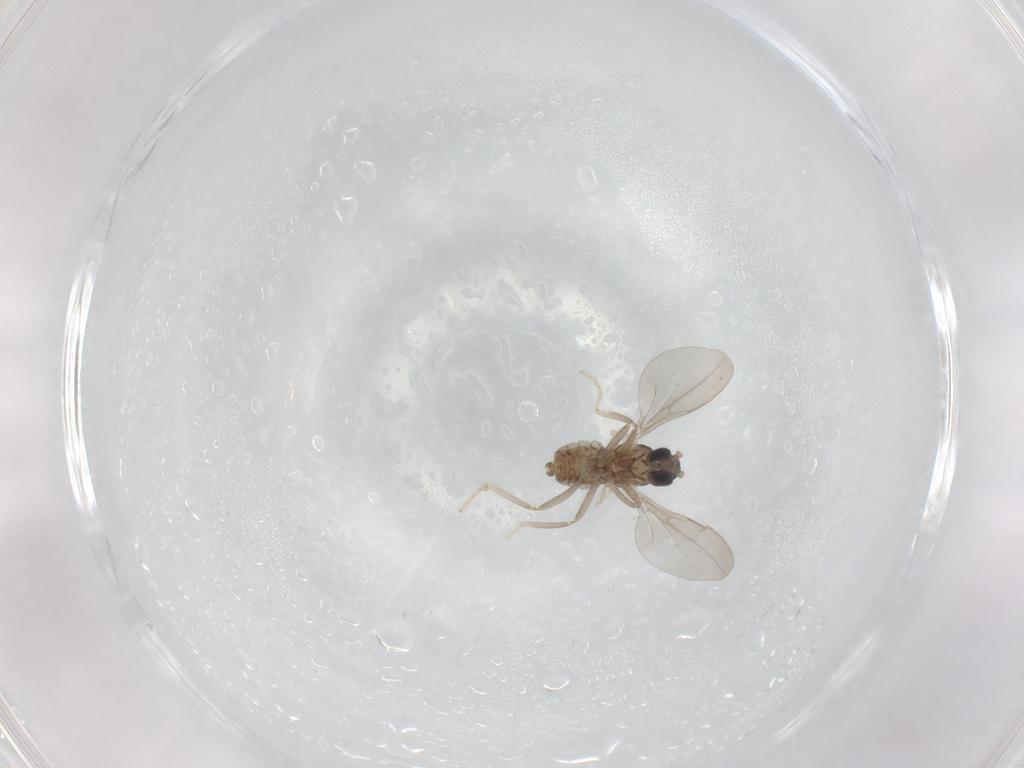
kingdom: Animalia
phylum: Arthropoda
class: Insecta
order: Diptera
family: Cecidomyiidae
